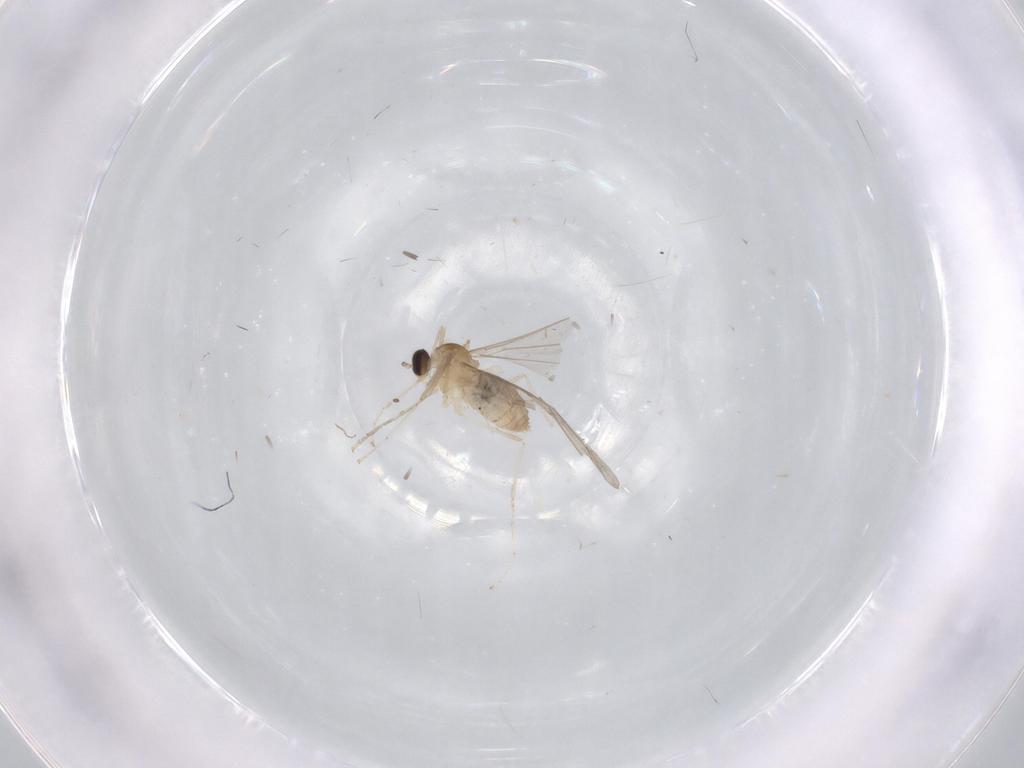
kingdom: Animalia
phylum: Arthropoda
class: Insecta
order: Diptera
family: Cecidomyiidae
